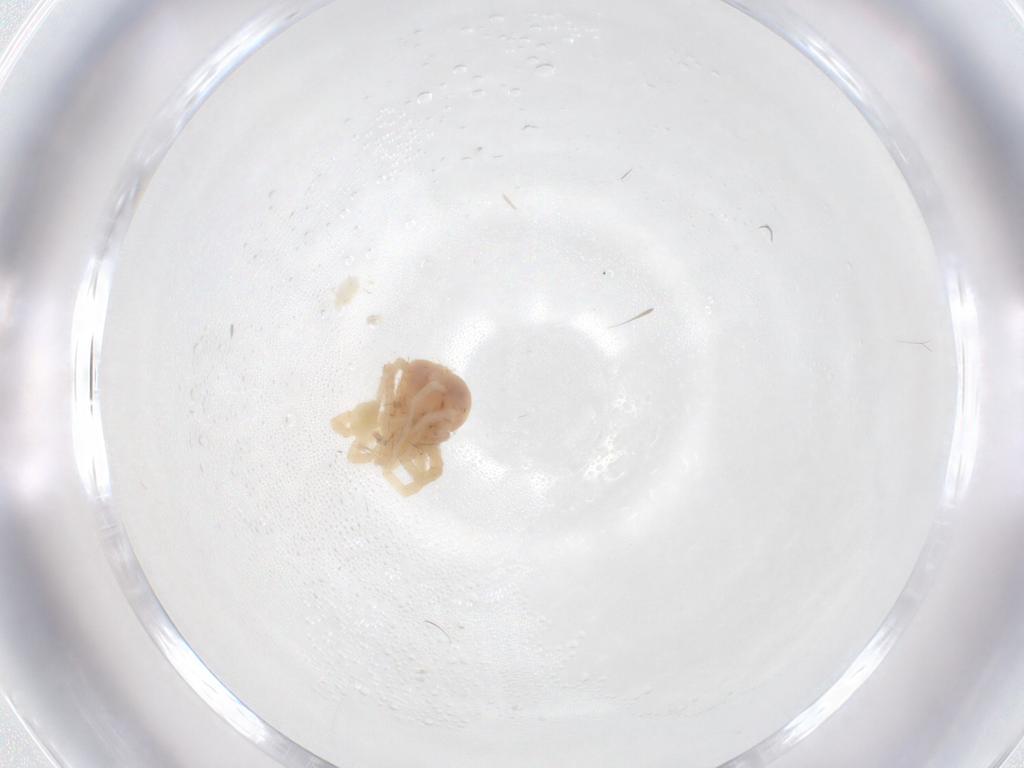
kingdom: Animalia
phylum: Arthropoda
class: Arachnida
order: Trombidiformes
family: Anystidae
